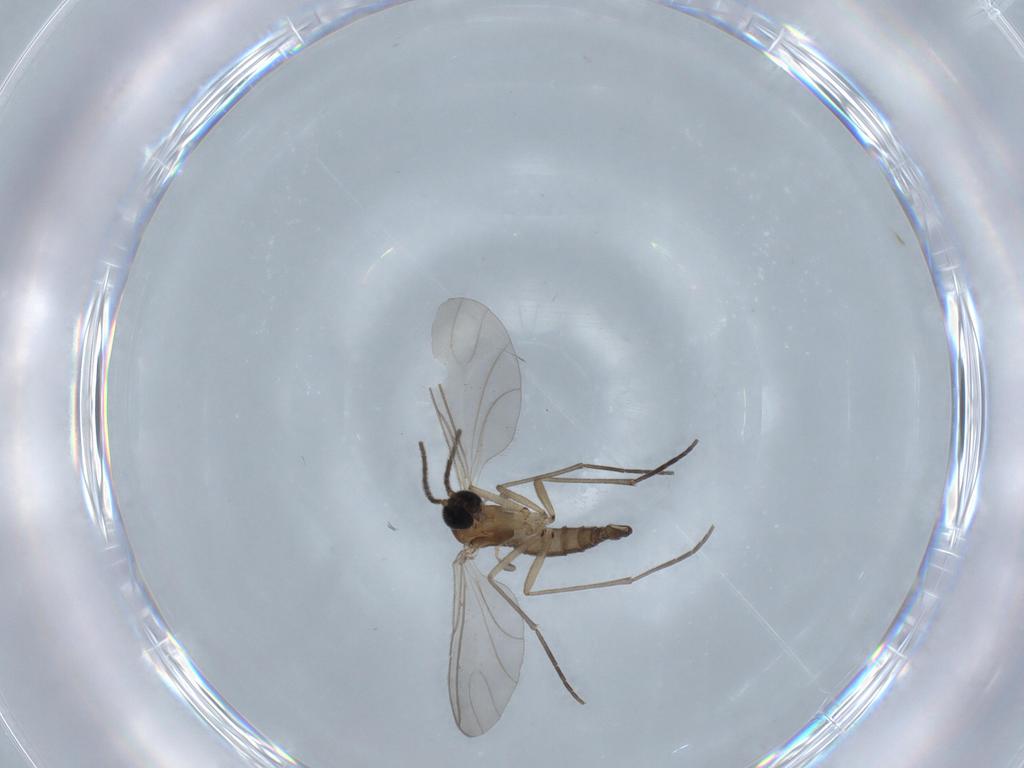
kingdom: Animalia
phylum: Arthropoda
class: Insecta
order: Diptera
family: Sciaridae
